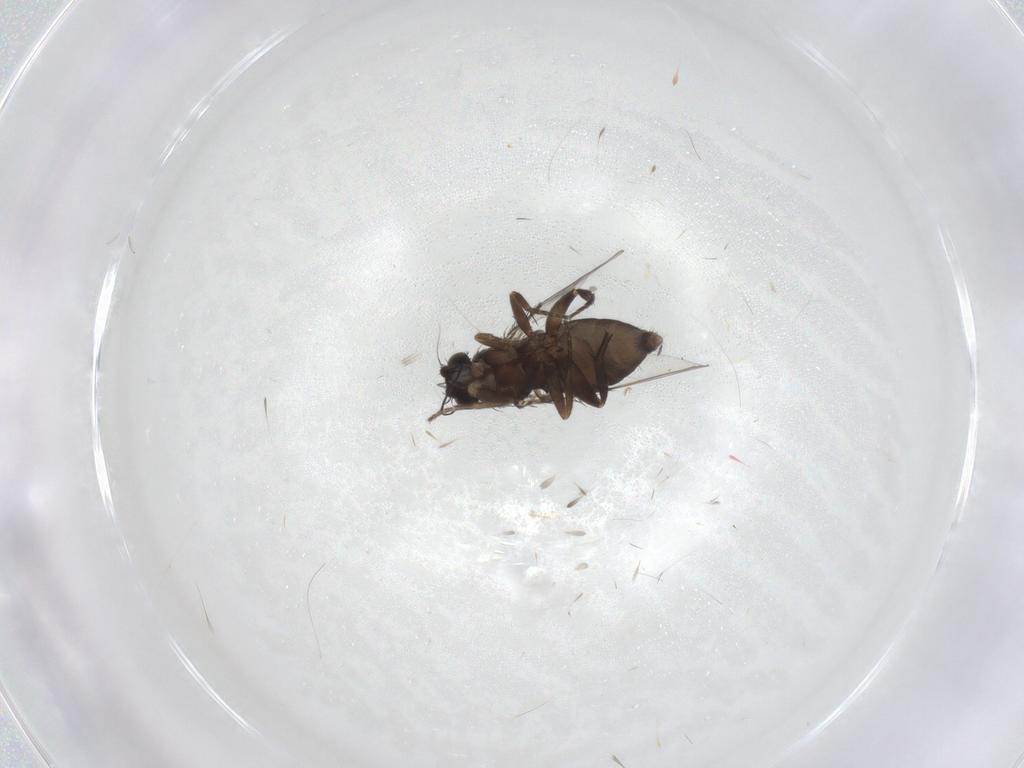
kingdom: Animalia
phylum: Arthropoda
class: Insecta
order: Diptera
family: Phoridae
